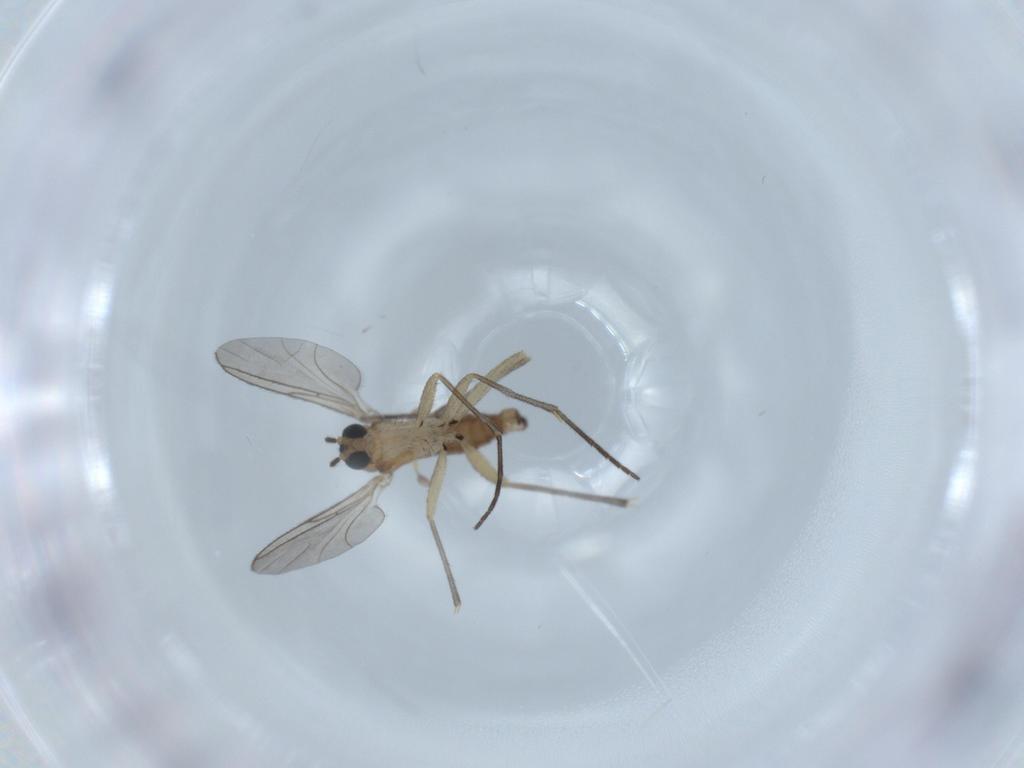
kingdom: Animalia
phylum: Arthropoda
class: Insecta
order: Diptera
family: Sciaridae
